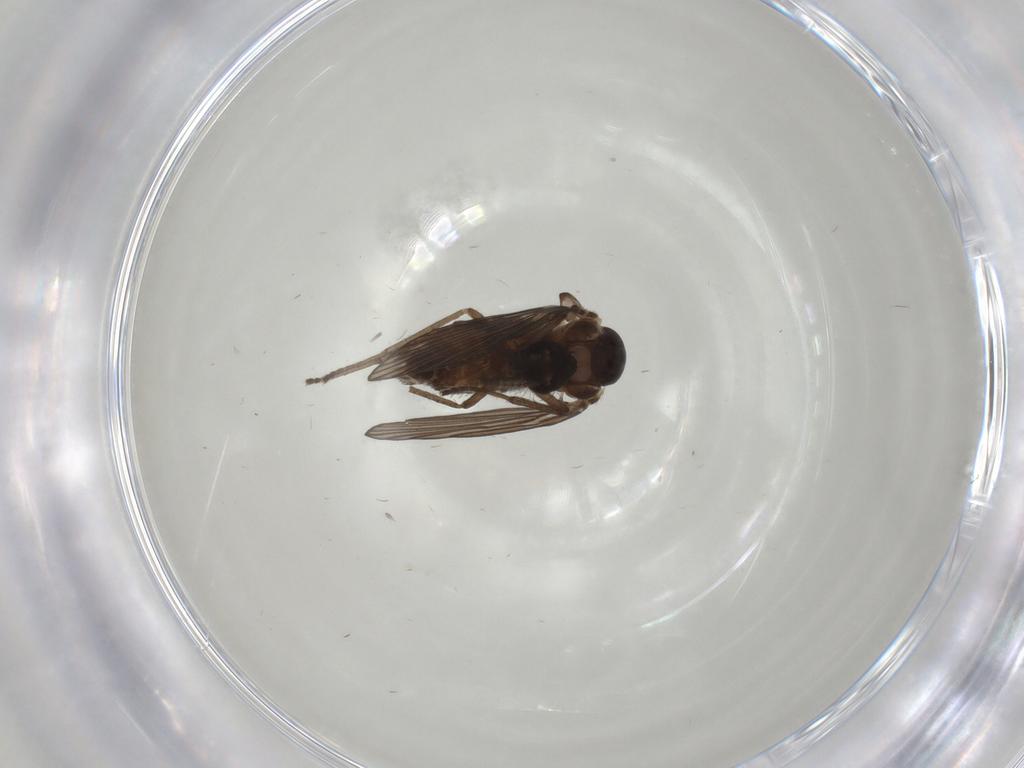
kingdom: Animalia
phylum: Arthropoda
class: Insecta
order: Diptera
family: Psychodidae
